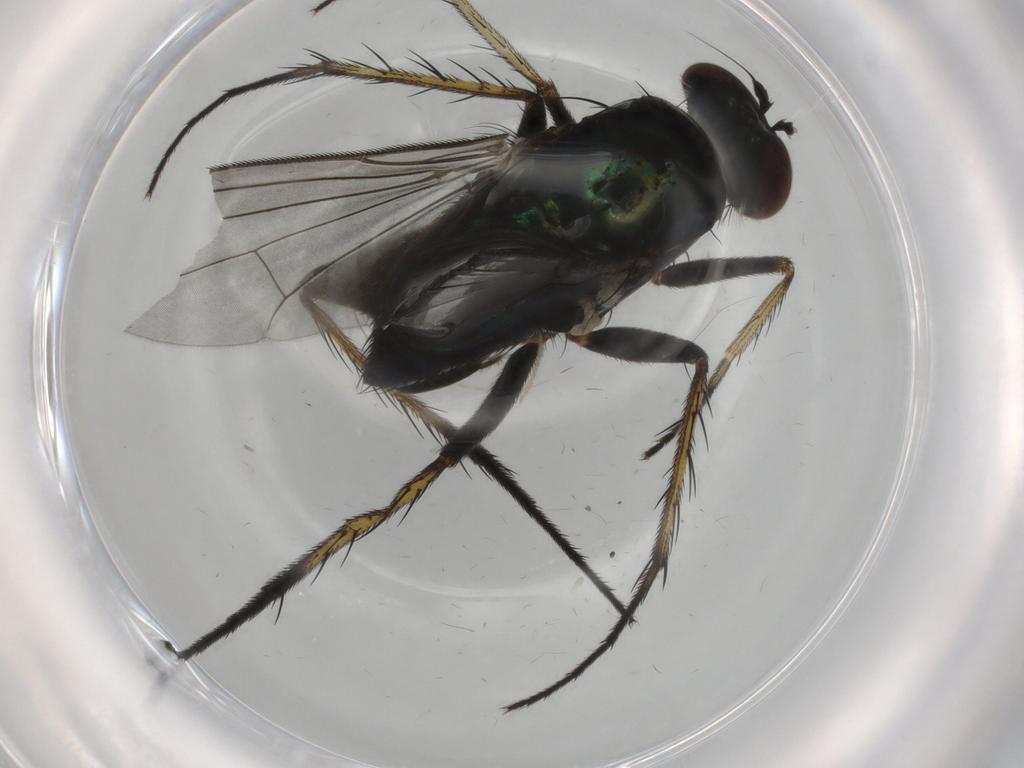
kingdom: Animalia
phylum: Arthropoda
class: Insecta
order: Diptera
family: Dolichopodidae
